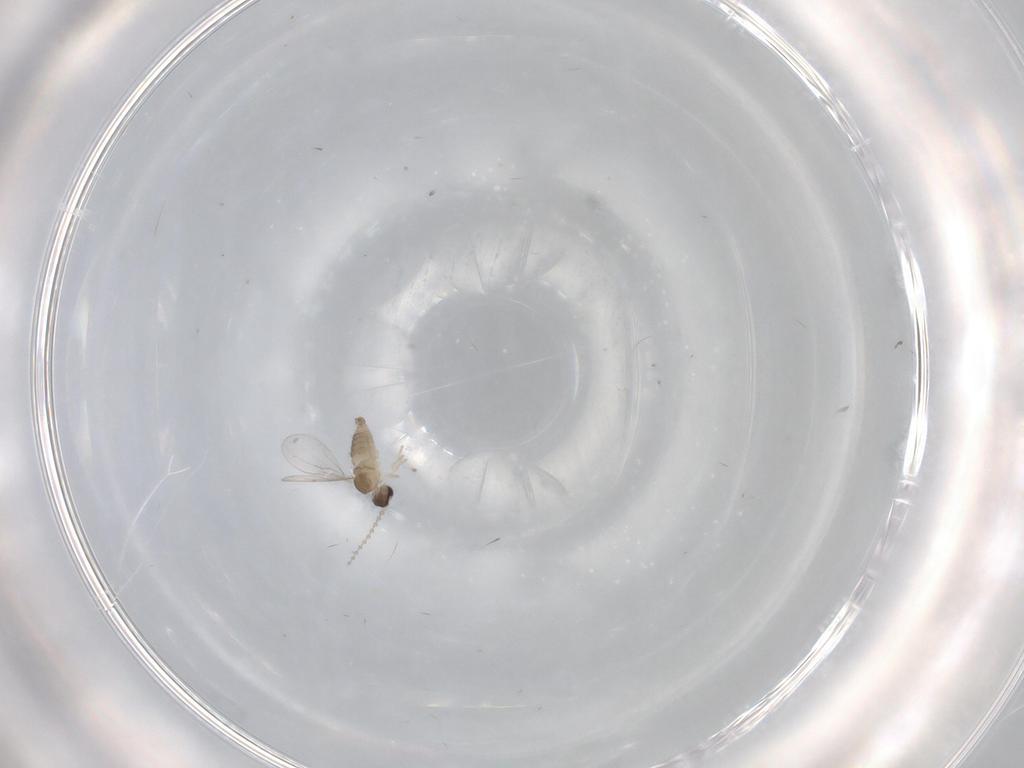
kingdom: Animalia
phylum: Arthropoda
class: Insecta
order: Diptera
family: Cecidomyiidae
